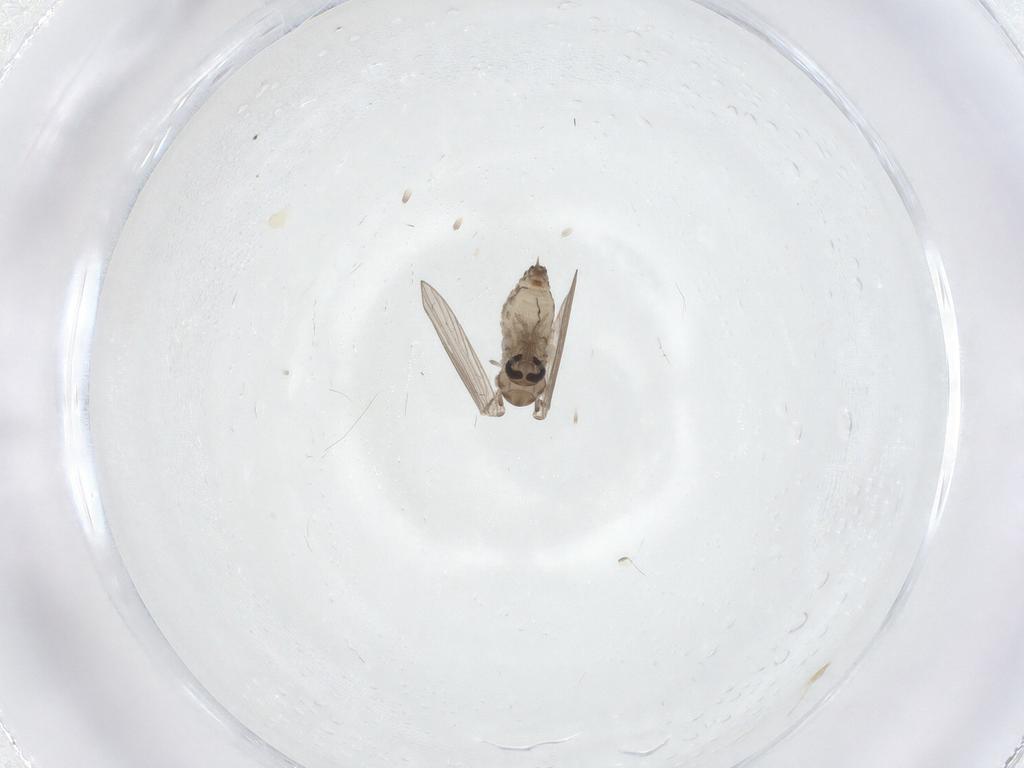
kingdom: Animalia
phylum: Arthropoda
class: Insecta
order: Diptera
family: Psychodidae
